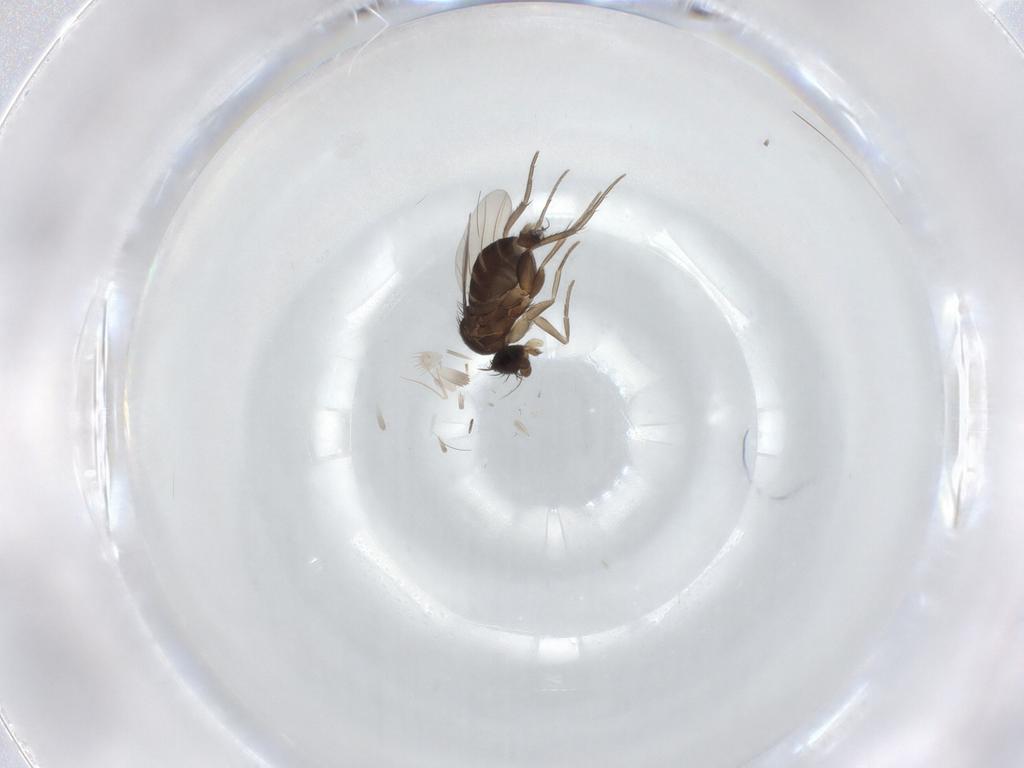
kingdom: Animalia
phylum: Arthropoda
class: Insecta
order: Diptera
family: Phoridae
